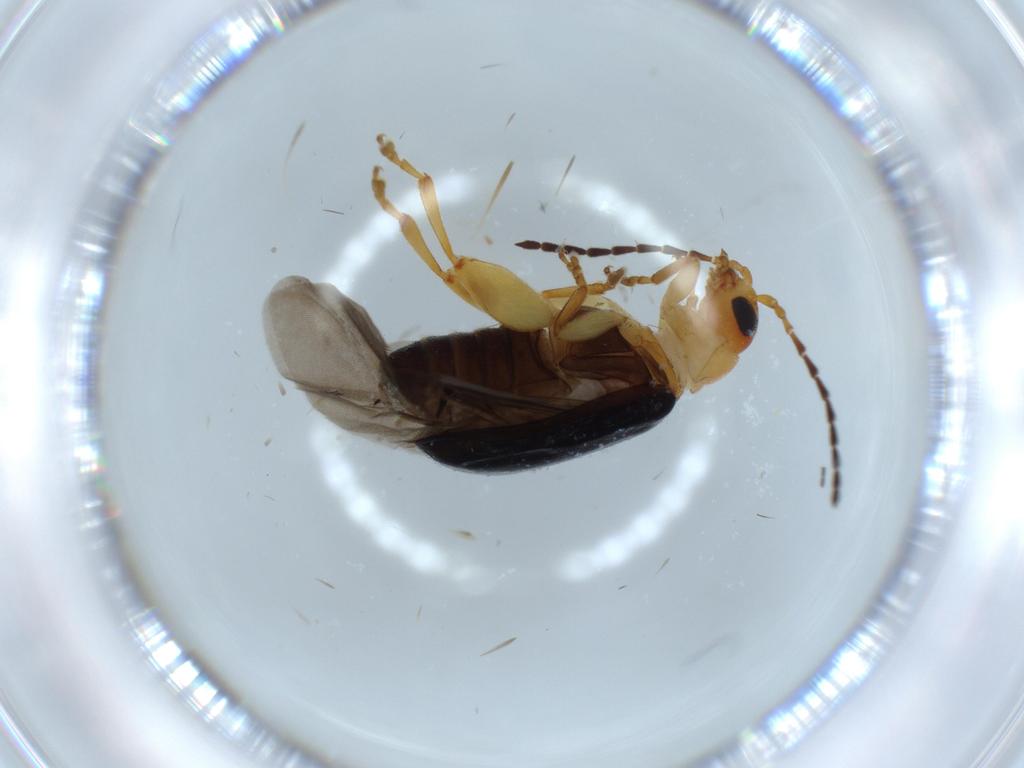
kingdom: Animalia
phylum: Arthropoda
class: Insecta
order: Coleoptera
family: Chrysomelidae
